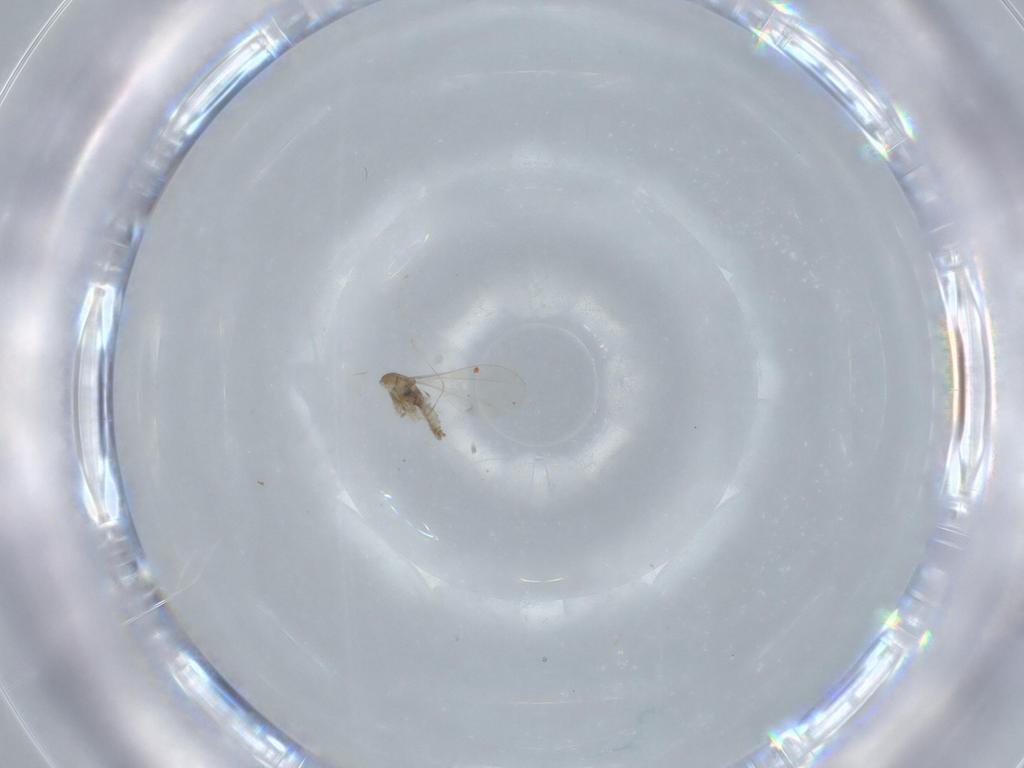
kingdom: Animalia
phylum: Arthropoda
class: Insecta
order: Diptera
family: Cecidomyiidae
